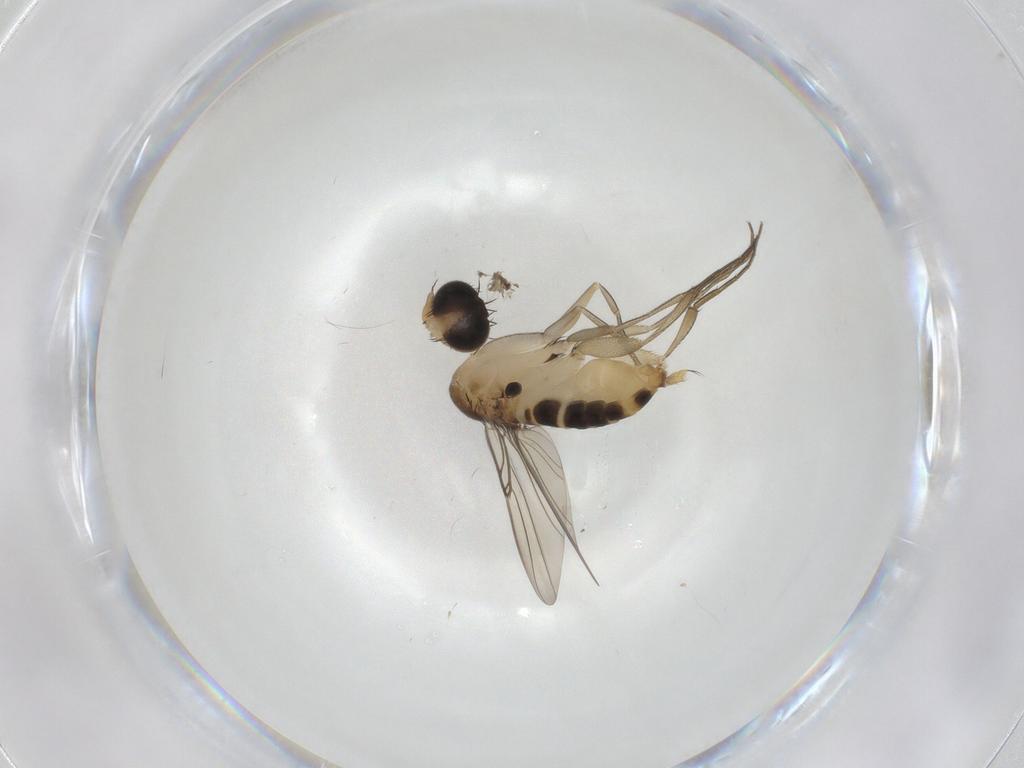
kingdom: Animalia
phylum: Arthropoda
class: Insecta
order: Diptera
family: Phoridae
